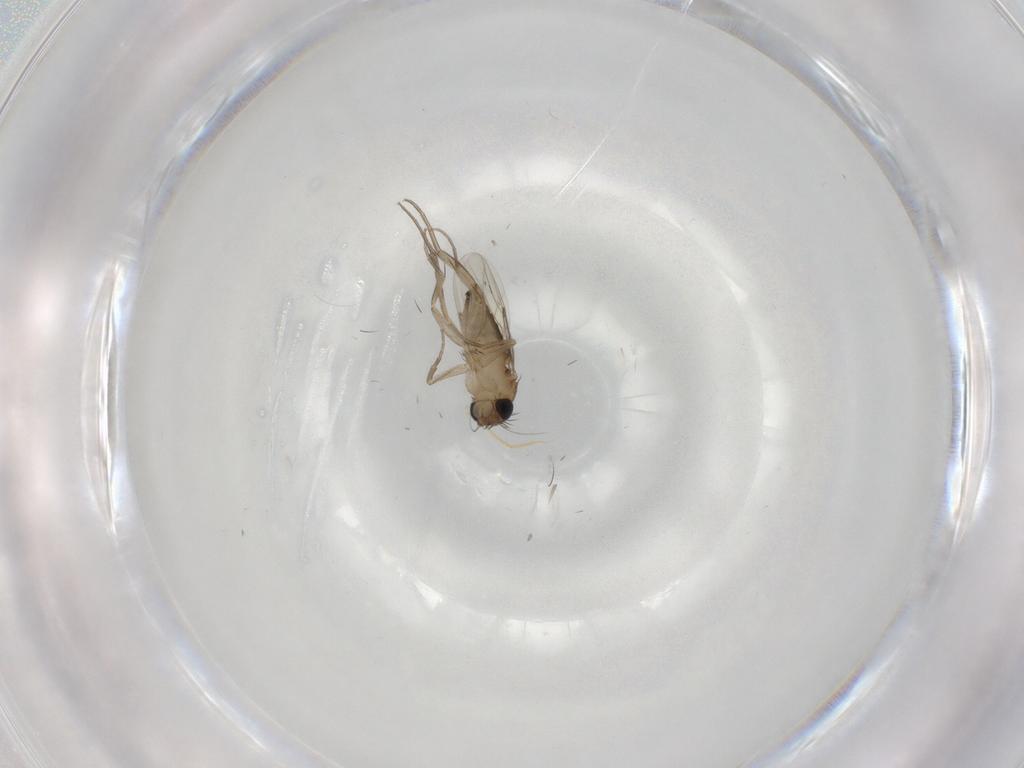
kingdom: Animalia
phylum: Arthropoda
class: Insecta
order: Diptera
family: Phoridae
